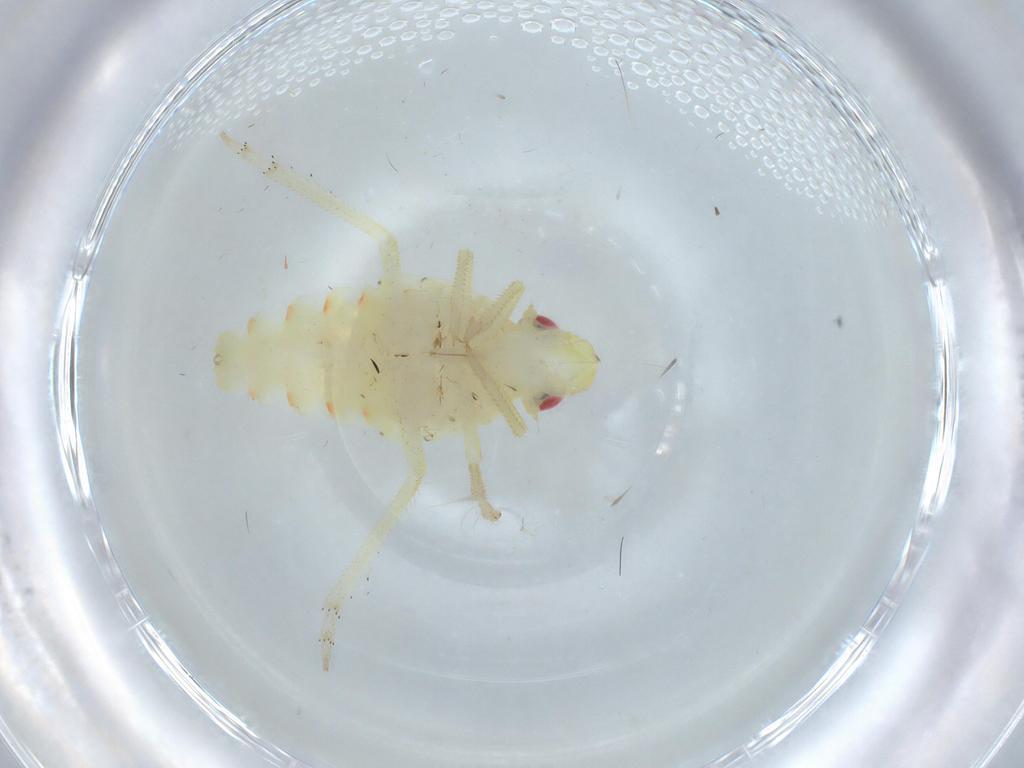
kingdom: Animalia
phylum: Arthropoda
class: Insecta
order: Hemiptera
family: Tropiduchidae
